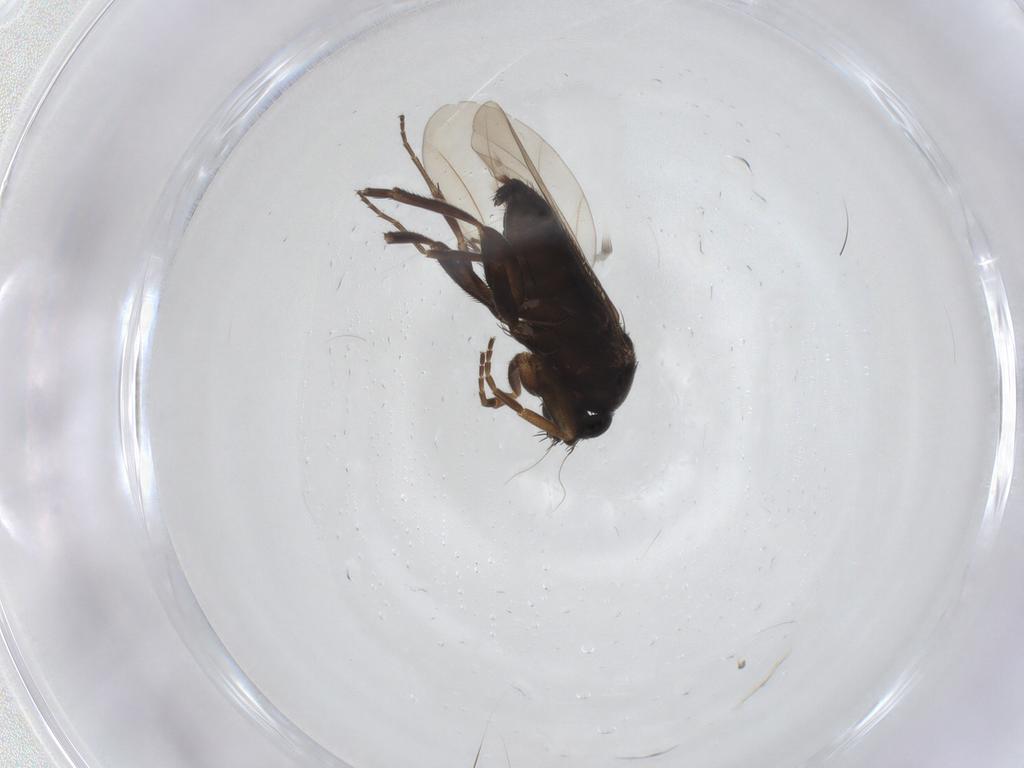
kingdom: Animalia
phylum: Arthropoda
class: Insecta
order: Diptera
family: Phoridae
